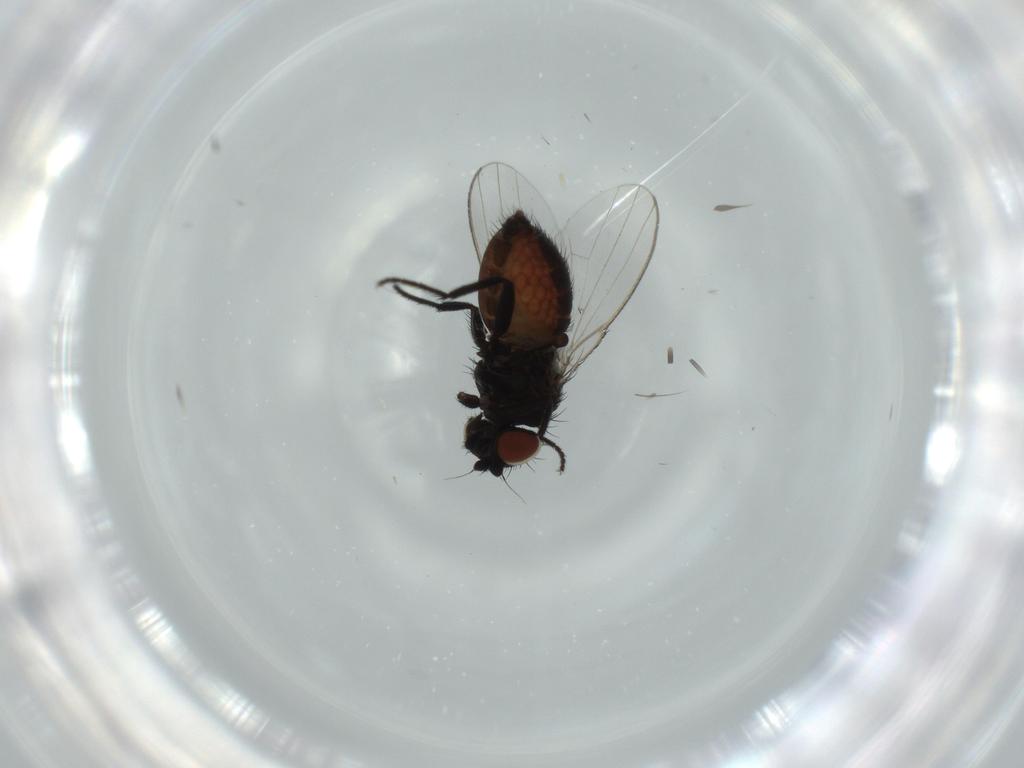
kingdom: Animalia
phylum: Arthropoda
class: Insecta
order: Diptera
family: Milichiidae
